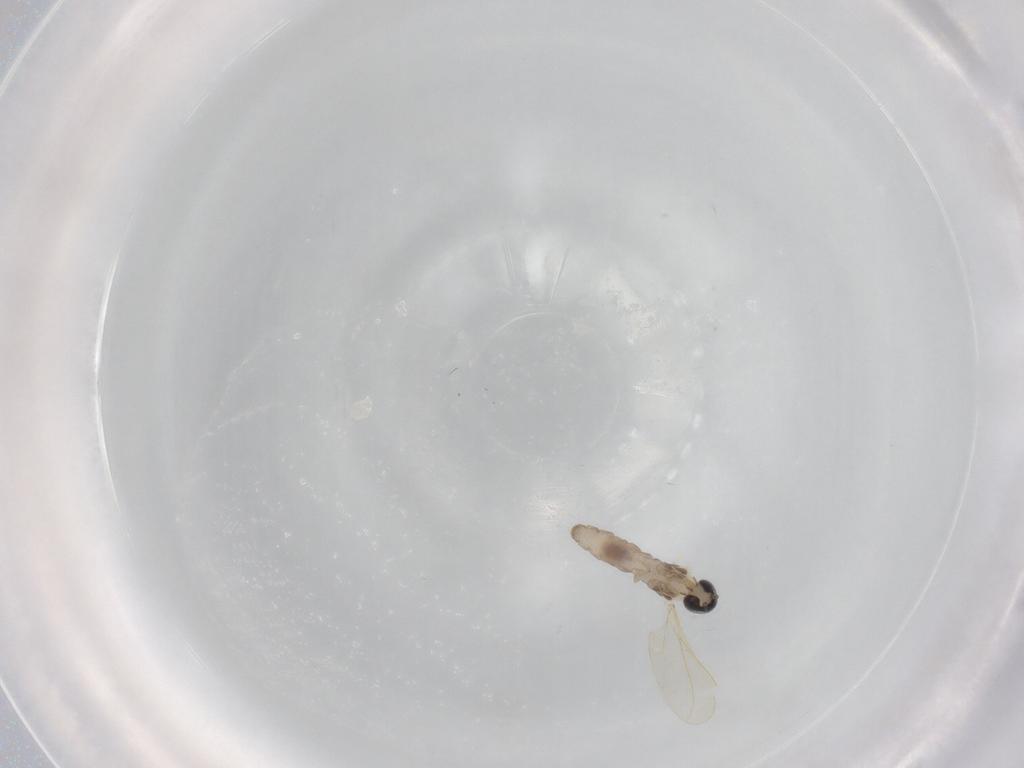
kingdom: Animalia
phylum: Arthropoda
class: Insecta
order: Diptera
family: Cecidomyiidae
